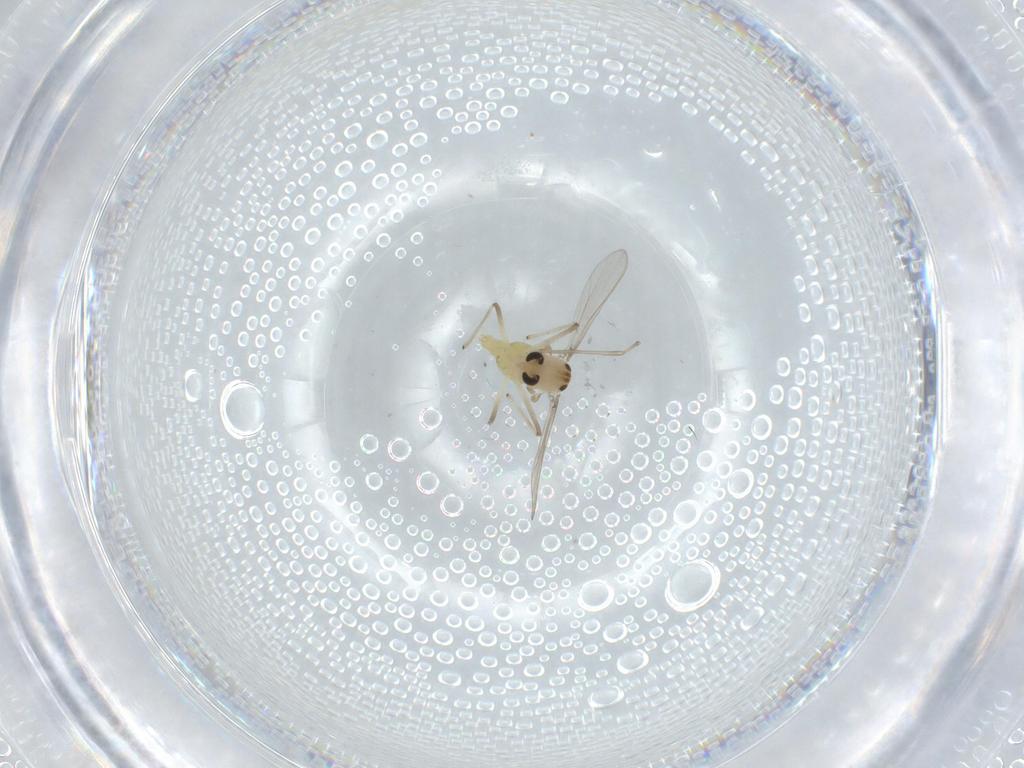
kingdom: Animalia
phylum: Arthropoda
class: Insecta
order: Diptera
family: Chironomidae
